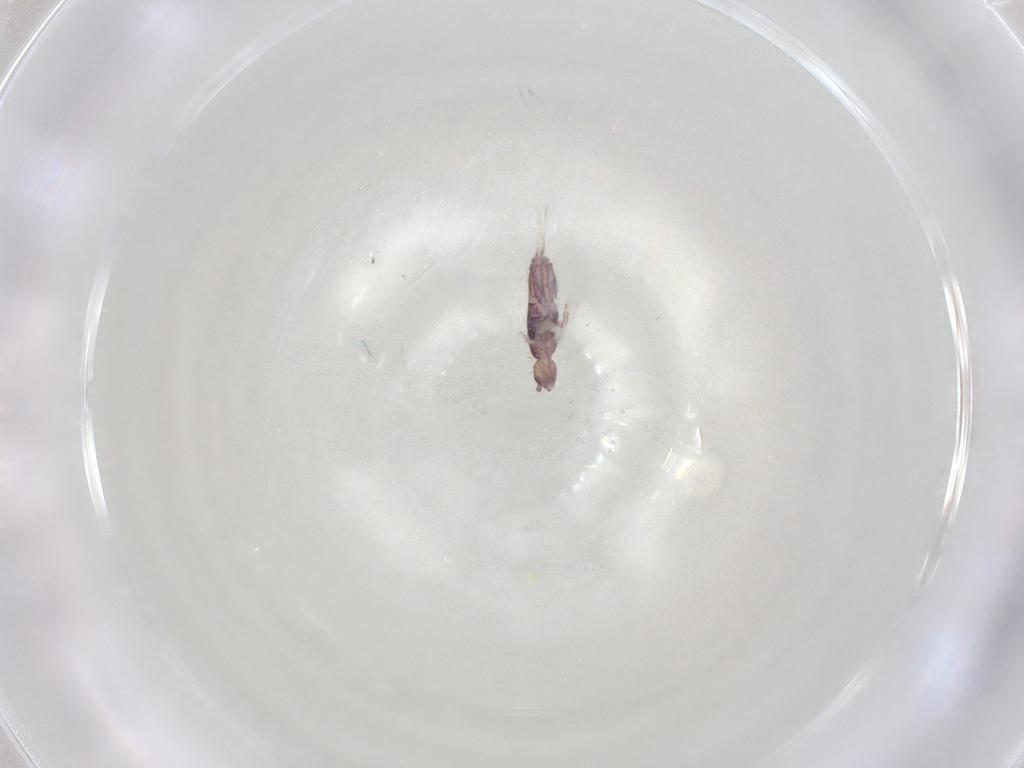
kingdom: Animalia
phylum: Arthropoda
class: Collembola
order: Entomobryomorpha
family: Entomobryidae
